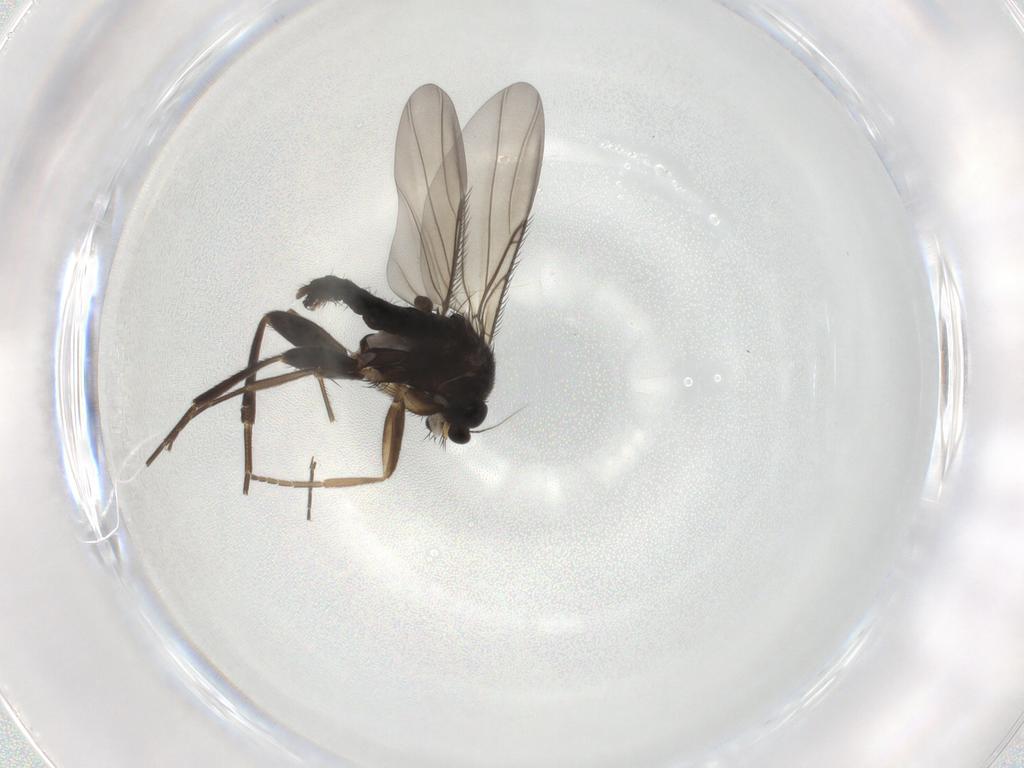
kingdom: Animalia
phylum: Arthropoda
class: Insecta
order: Diptera
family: Phoridae
